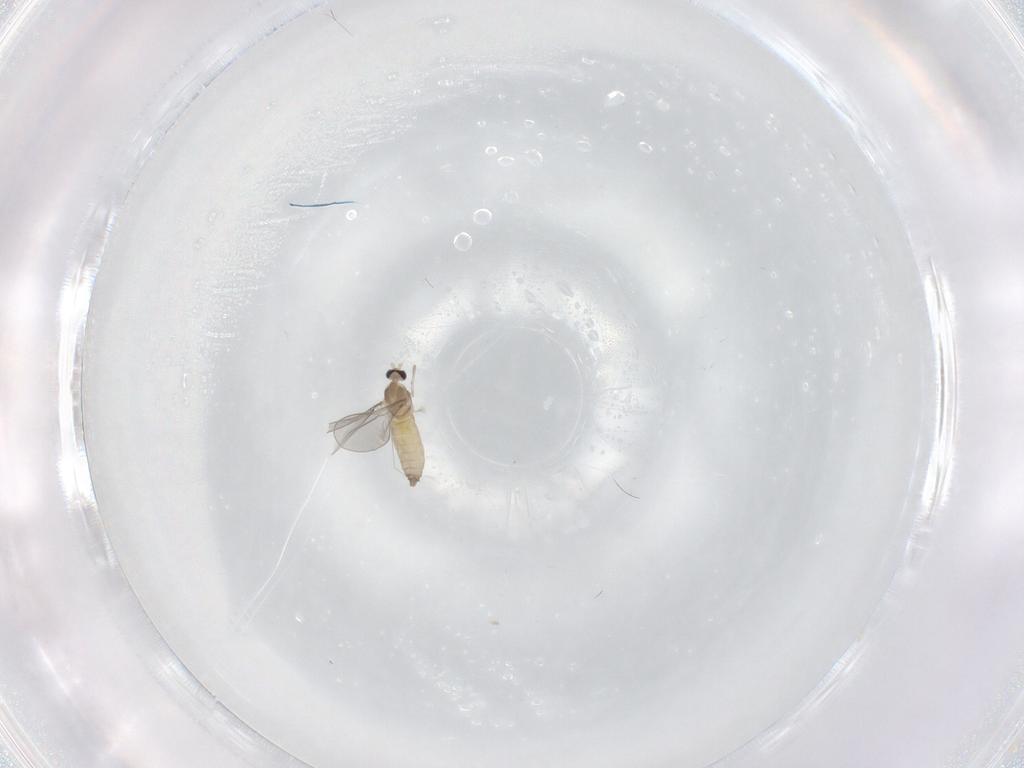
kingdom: Animalia
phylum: Arthropoda
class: Insecta
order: Diptera
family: Cecidomyiidae
